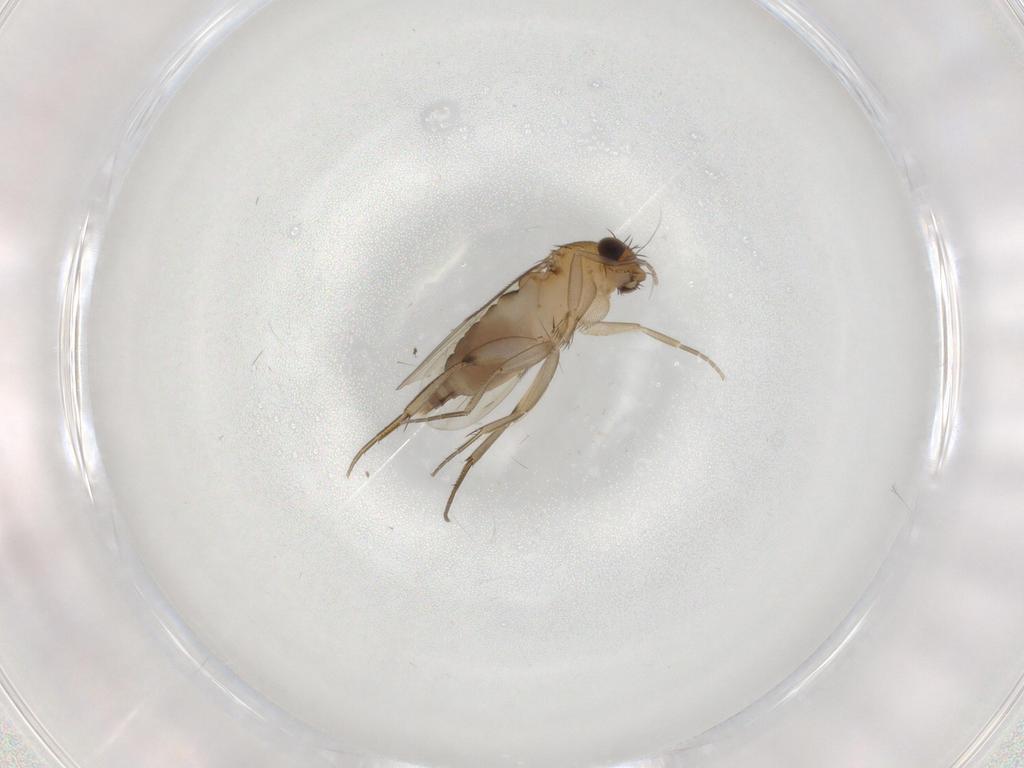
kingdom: Animalia
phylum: Arthropoda
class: Insecta
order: Diptera
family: Phoridae
